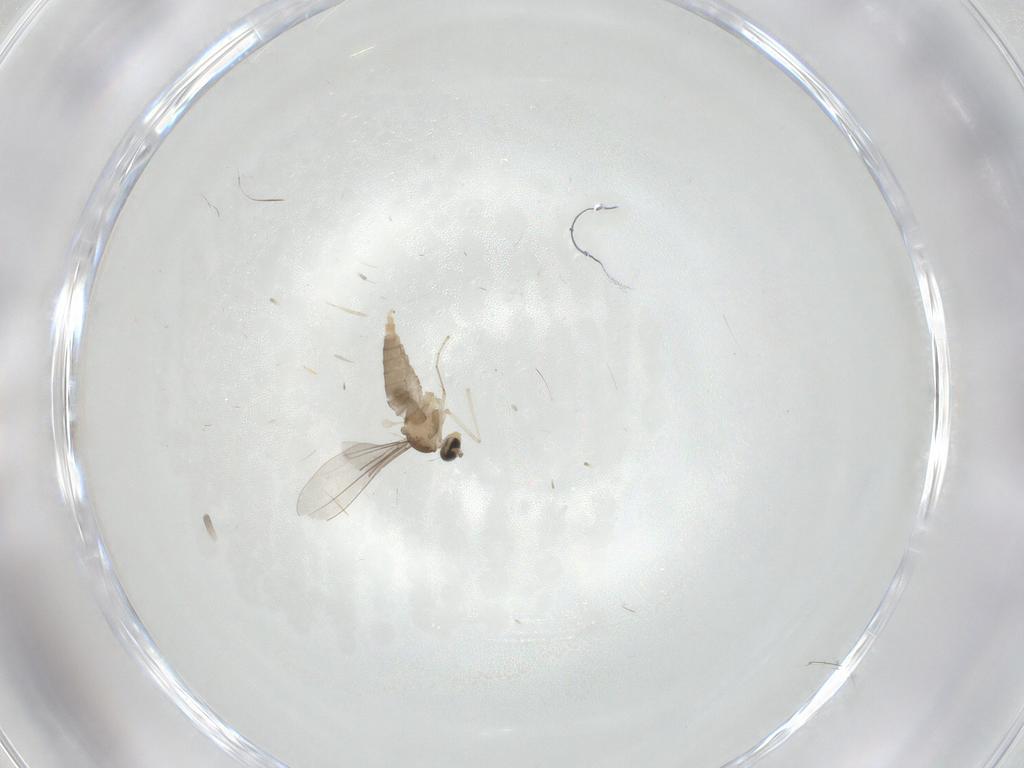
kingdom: Animalia
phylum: Arthropoda
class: Insecta
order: Diptera
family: Cecidomyiidae
